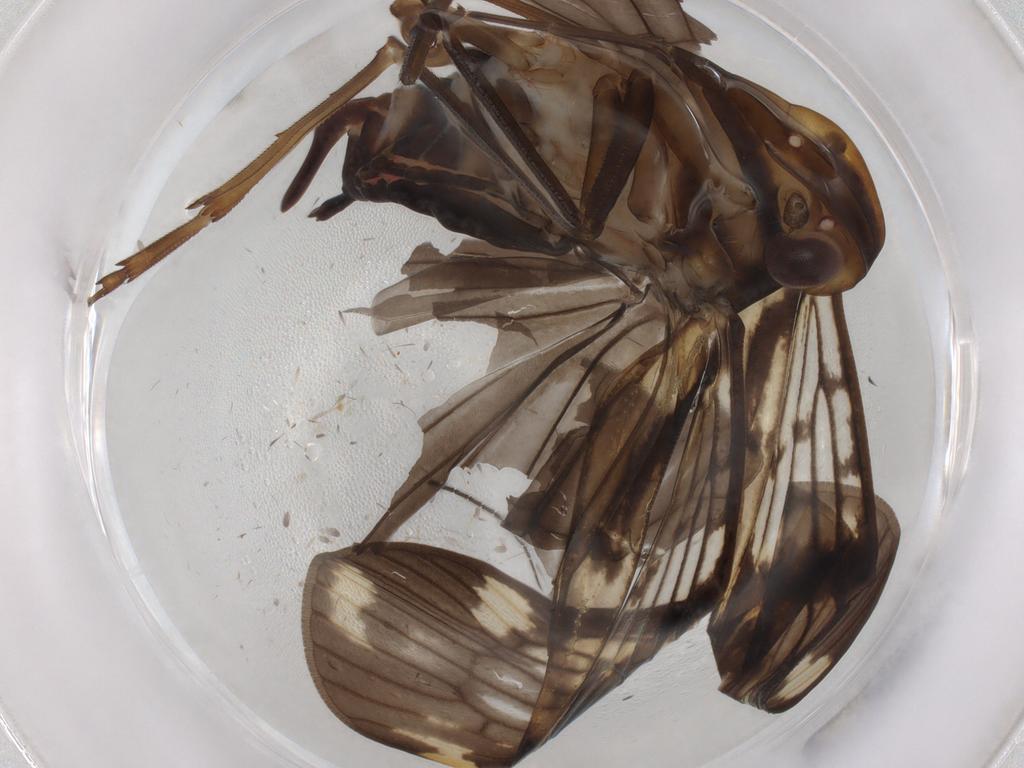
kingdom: Animalia
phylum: Arthropoda
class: Insecta
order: Hemiptera
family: Cixiidae
